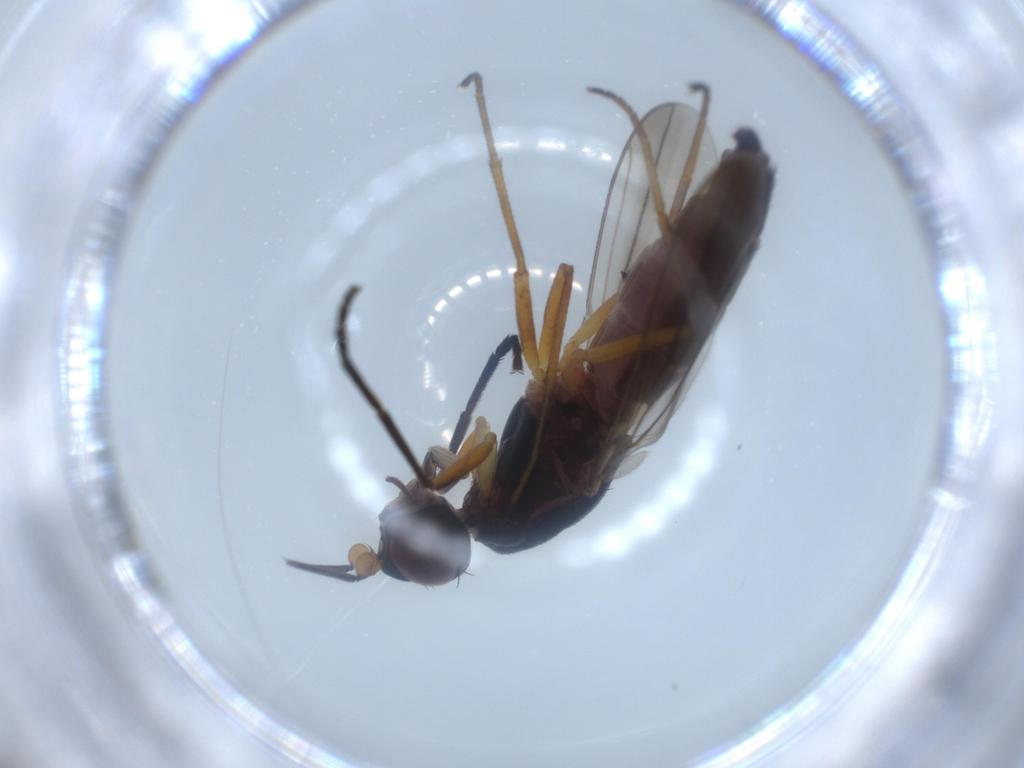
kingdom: Animalia
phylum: Arthropoda
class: Insecta
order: Diptera
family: Chloropidae
